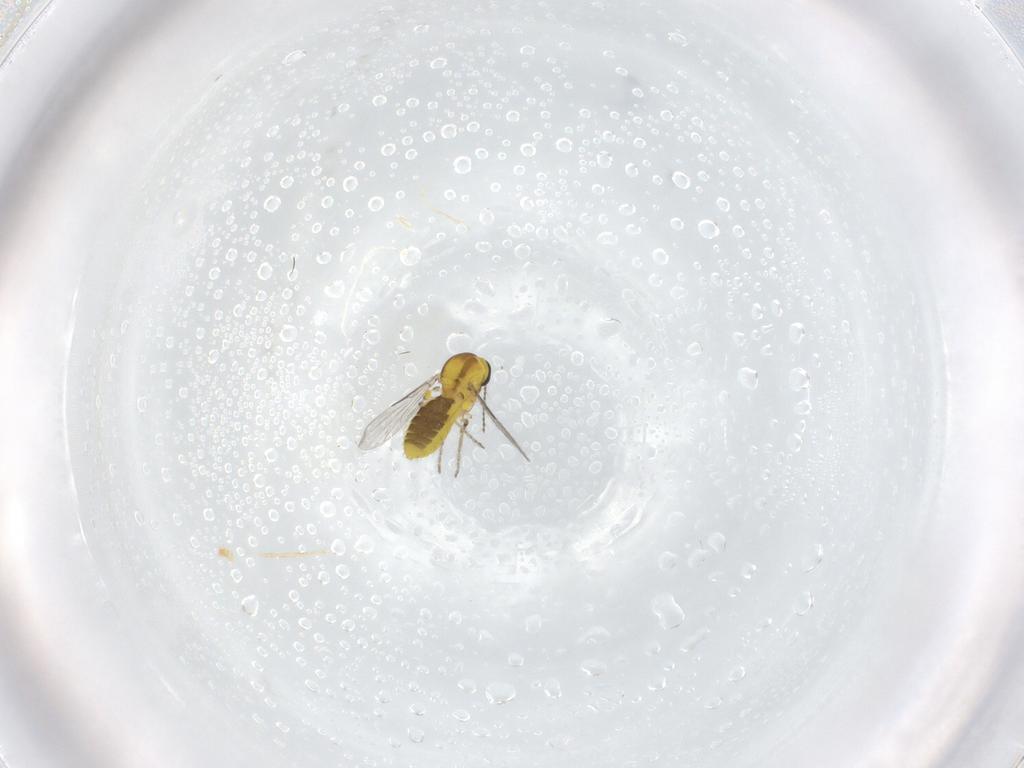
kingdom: Animalia
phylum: Arthropoda
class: Insecta
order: Diptera
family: Ceratopogonidae
